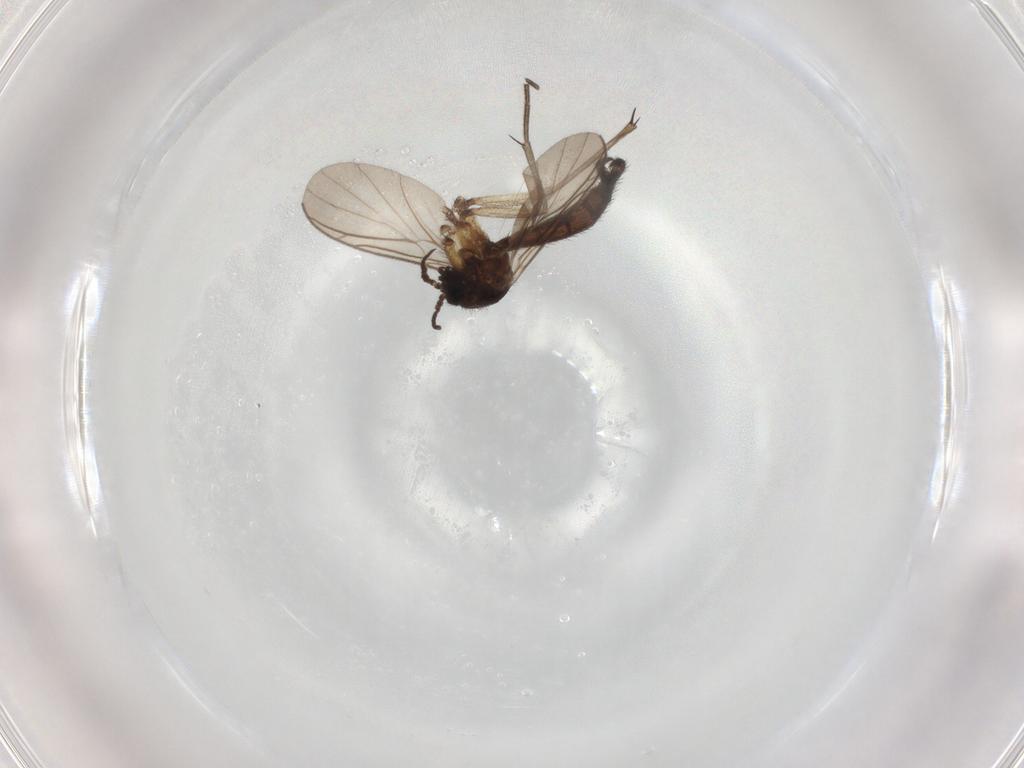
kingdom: Animalia
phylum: Arthropoda
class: Insecta
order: Diptera
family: Keroplatidae
